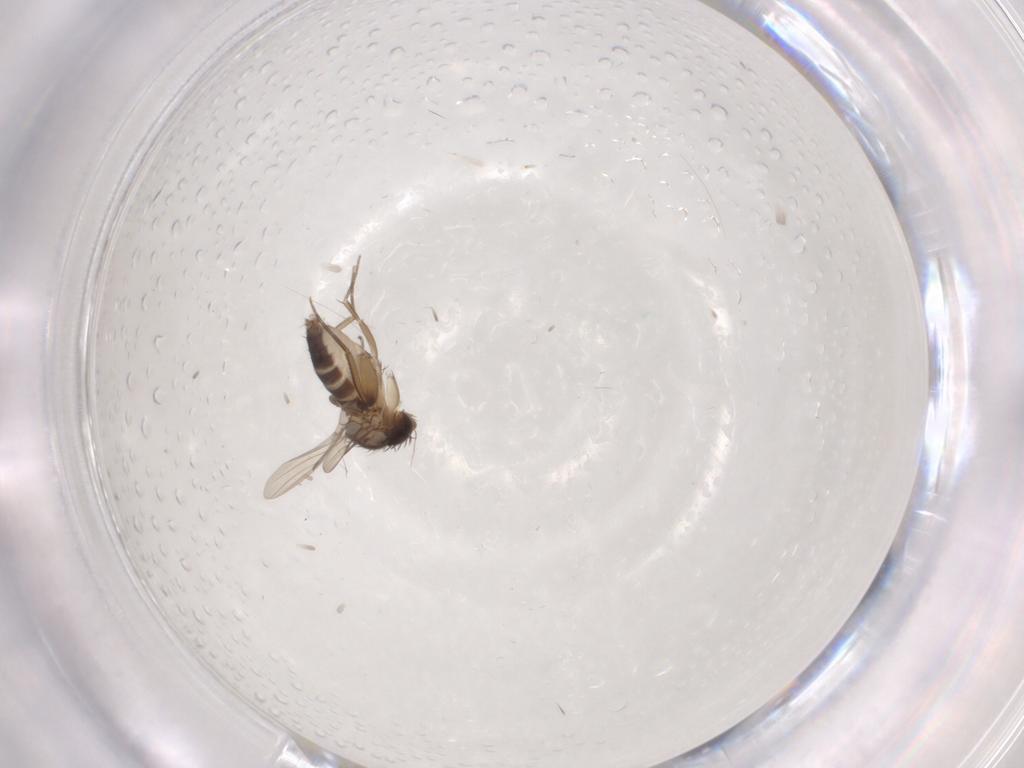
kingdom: Animalia
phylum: Arthropoda
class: Insecta
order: Diptera
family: Phoridae
